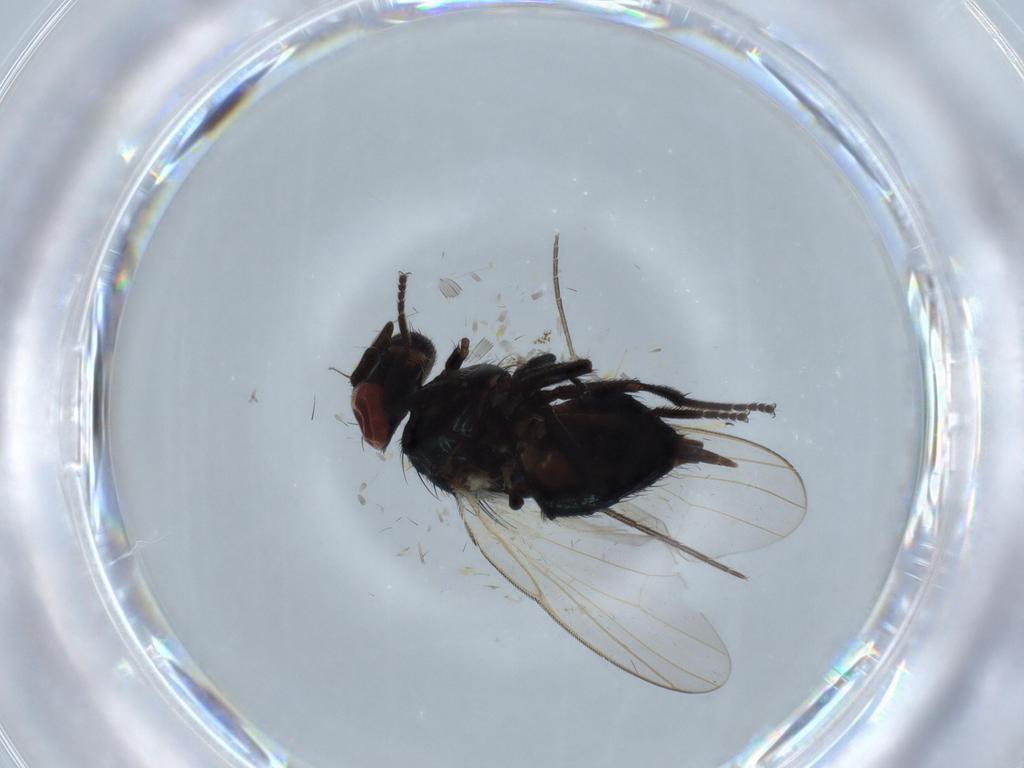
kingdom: Animalia
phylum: Arthropoda
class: Insecta
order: Diptera
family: Lonchaeidae
